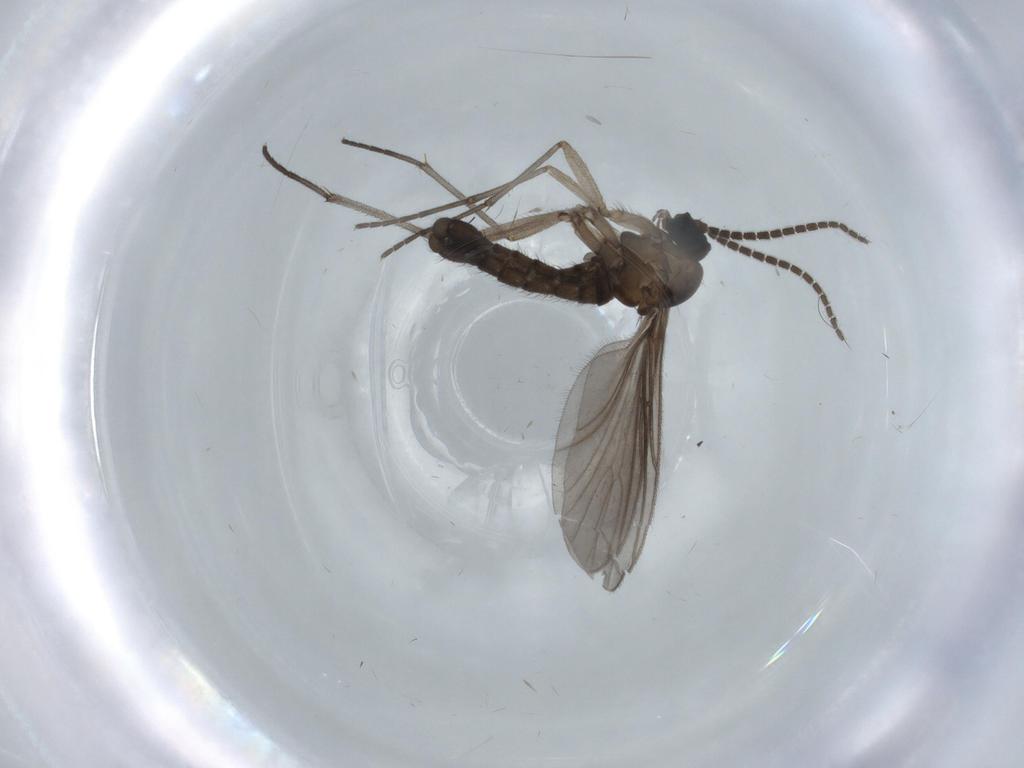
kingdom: Animalia
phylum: Arthropoda
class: Insecta
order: Diptera
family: Sciaridae
